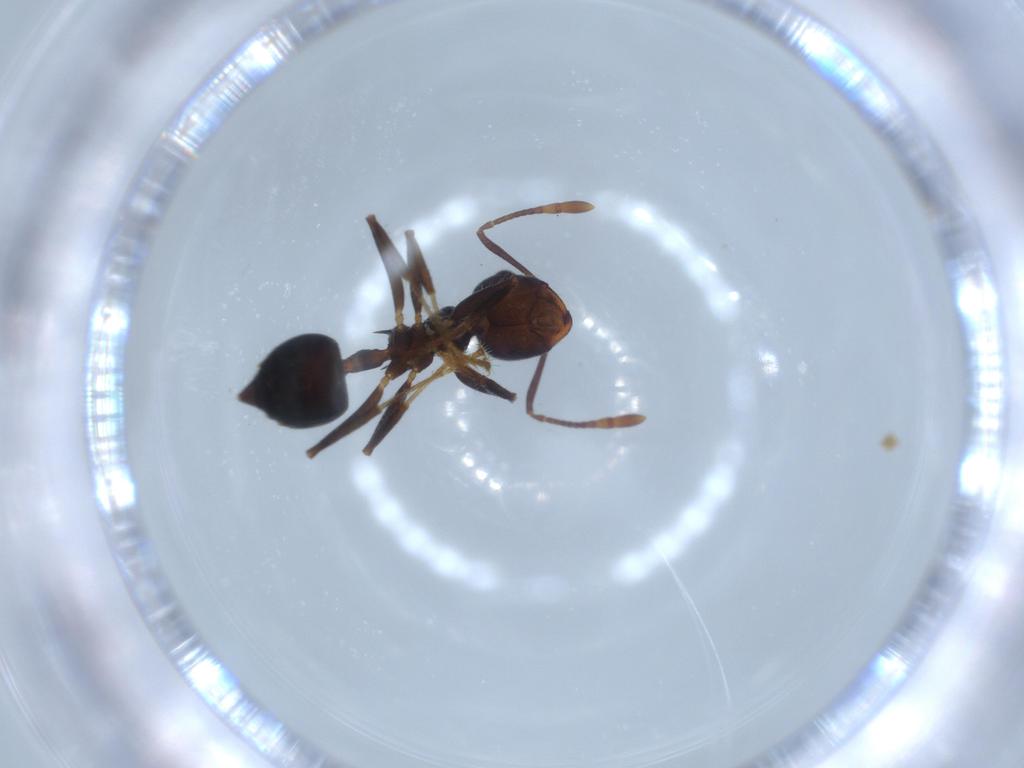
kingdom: Animalia
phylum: Arthropoda
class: Insecta
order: Hymenoptera
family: Formicidae
